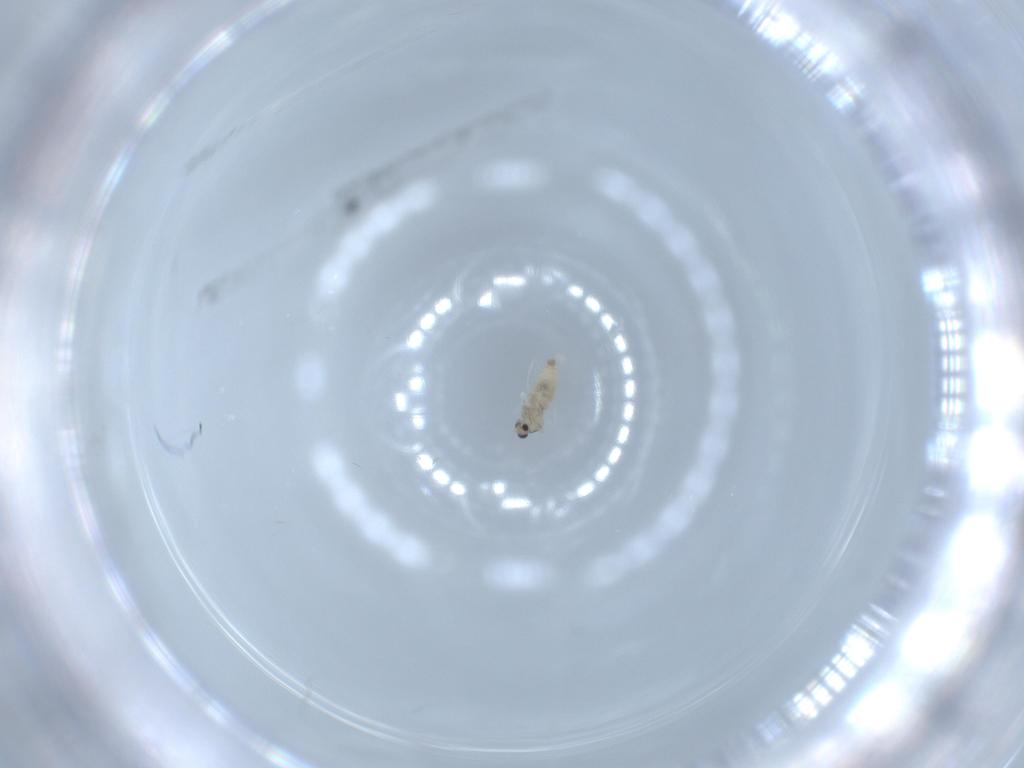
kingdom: Animalia
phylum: Arthropoda
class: Insecta
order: Diptera
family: Cecidomyiidae
